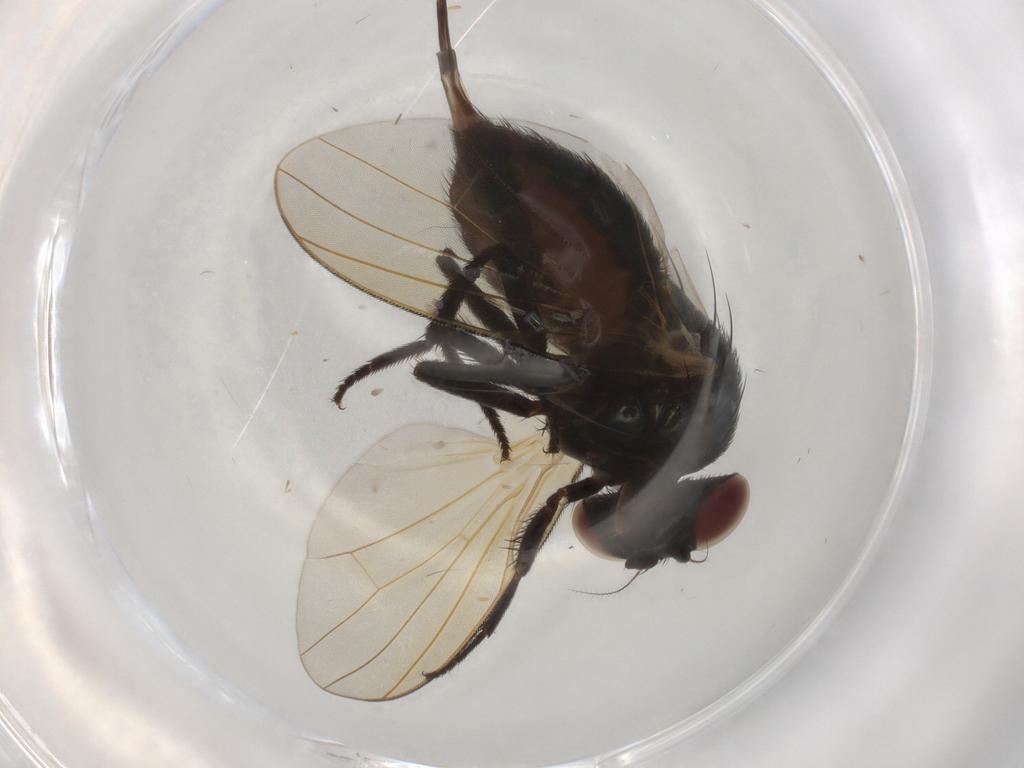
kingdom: Animalia
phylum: Arthropoda
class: Insecta
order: Diptera
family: Lonchaeidae
